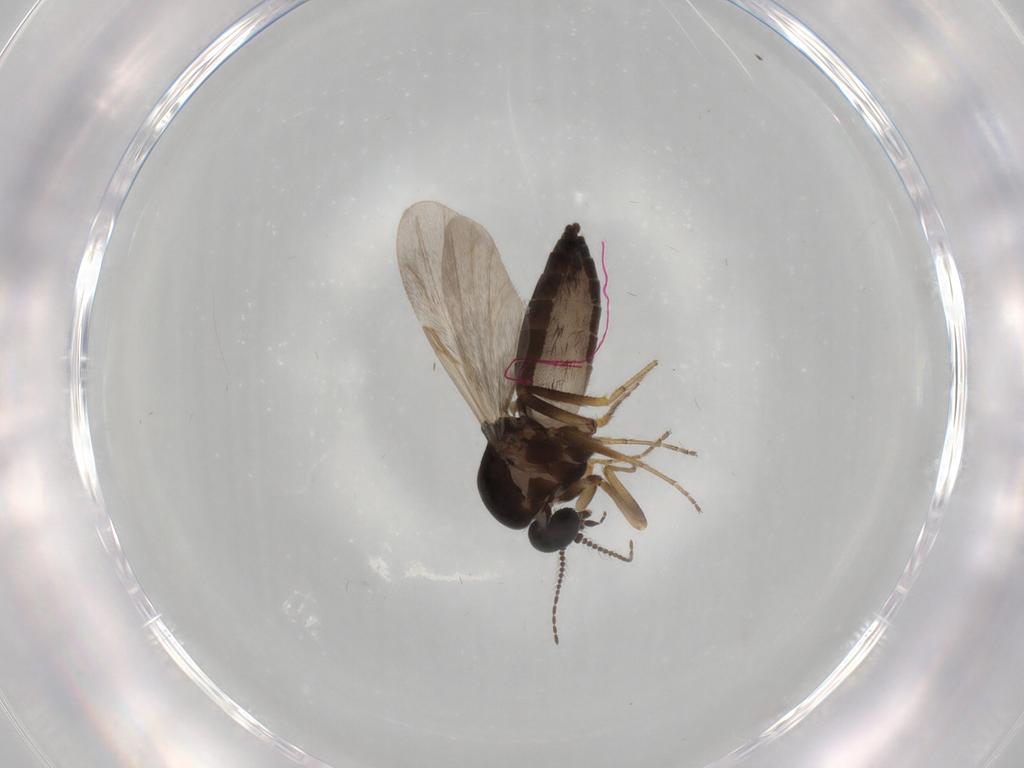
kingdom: Animalia
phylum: Arthropoda
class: Insecta
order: Diptera
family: Ceratopogonidae
